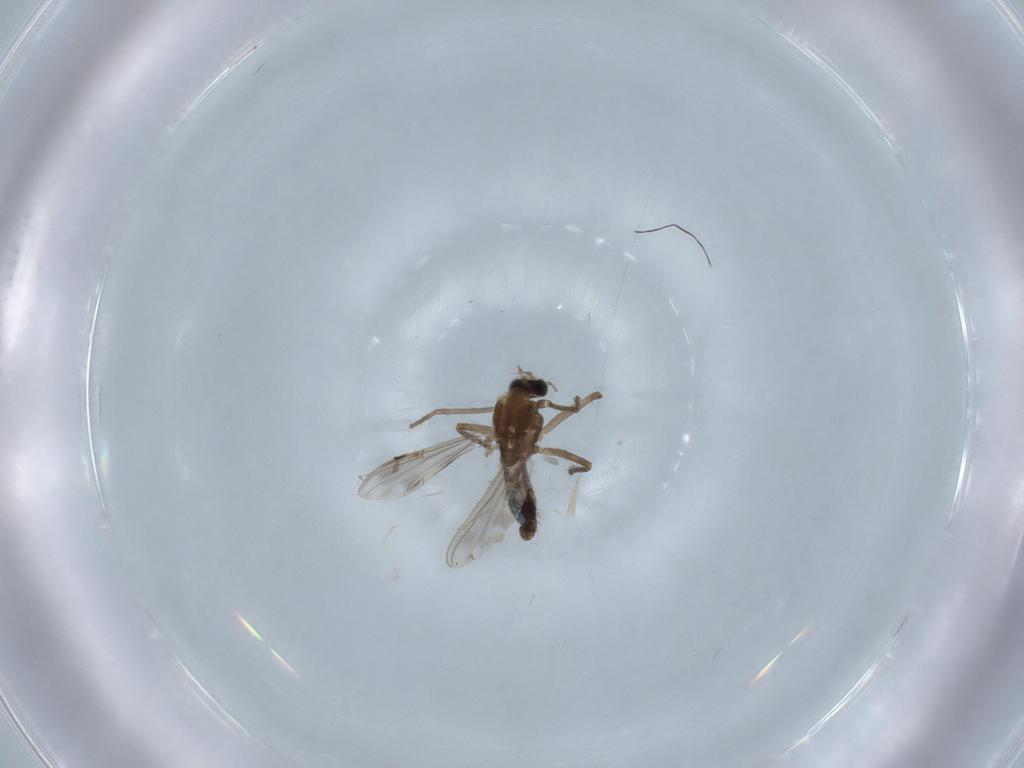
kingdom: Animalia
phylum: Arthropoda
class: Insecta
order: Diptera
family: Chironomidae
